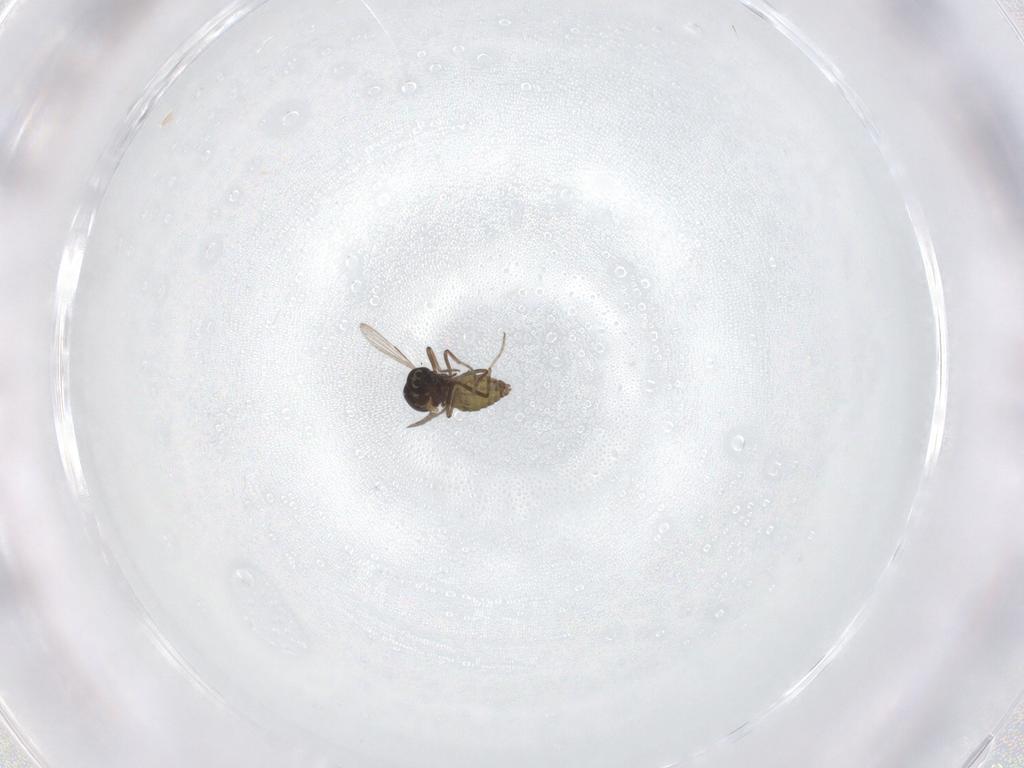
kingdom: Animalia
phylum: Arthropoda
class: Insecta
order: Diptera
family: Ceratopogonidae
